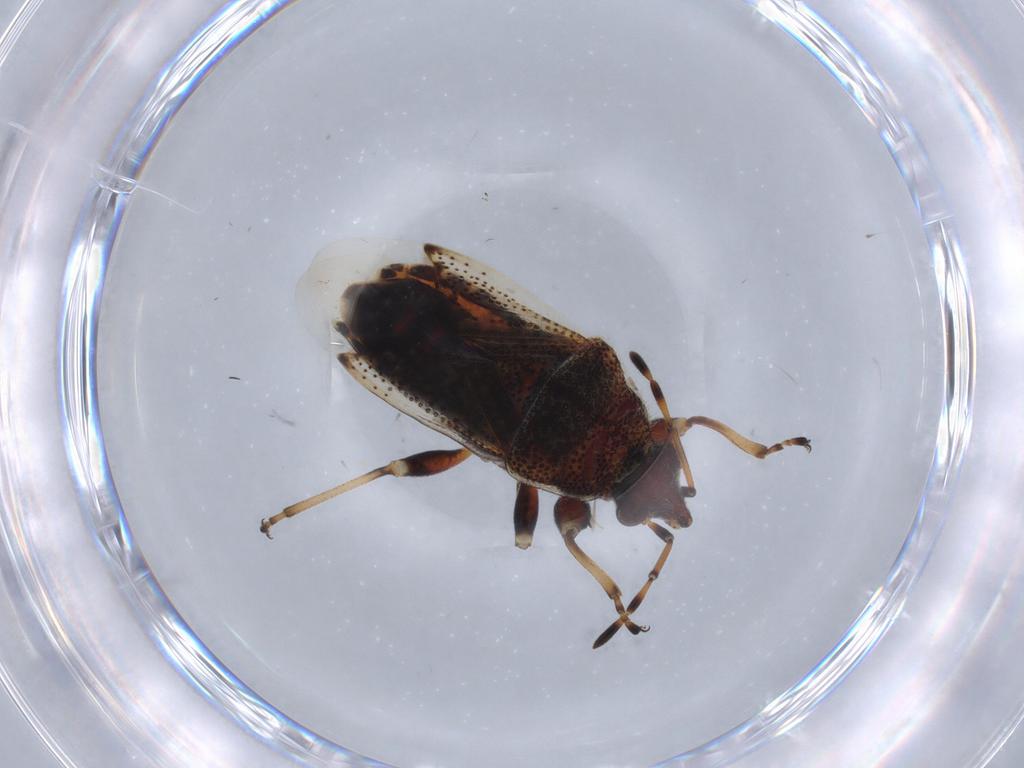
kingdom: Animalia
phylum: Arthropoda
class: Insecta
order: Hemiptera
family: Rhyparochromidae
